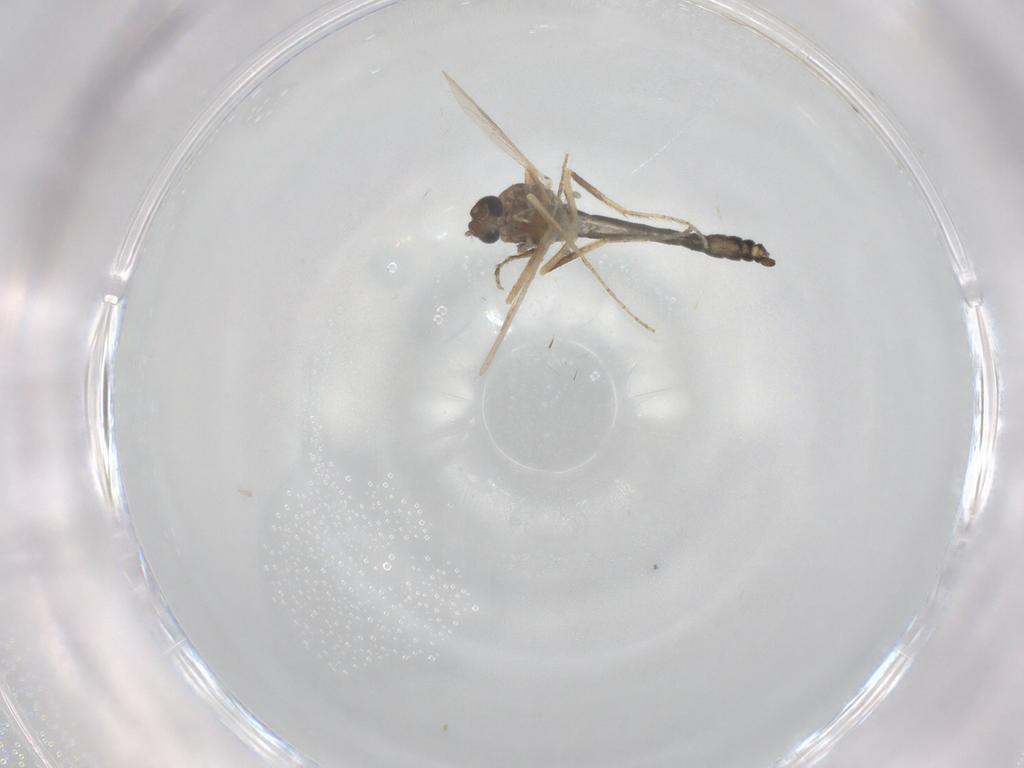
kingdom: Animalia
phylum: Arthropoda
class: Insecta
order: Diptera
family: Ceratopogonidae
